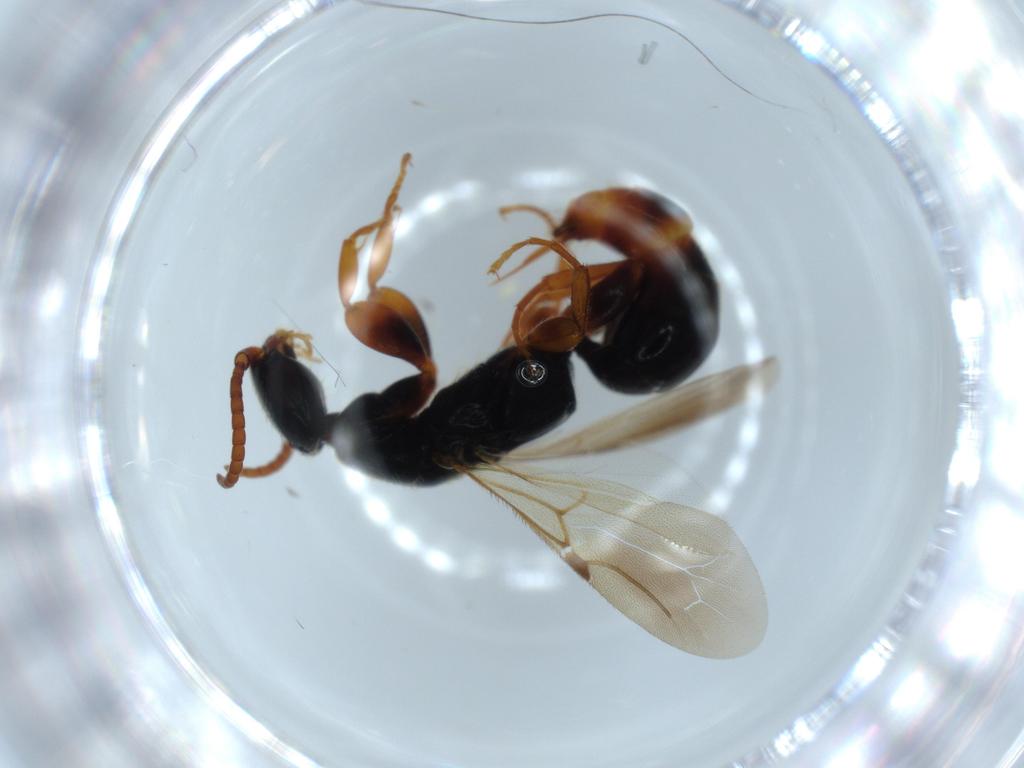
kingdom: Animalia
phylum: Arthropoda
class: Insecta
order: Hymenoptera
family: Bethylidae
